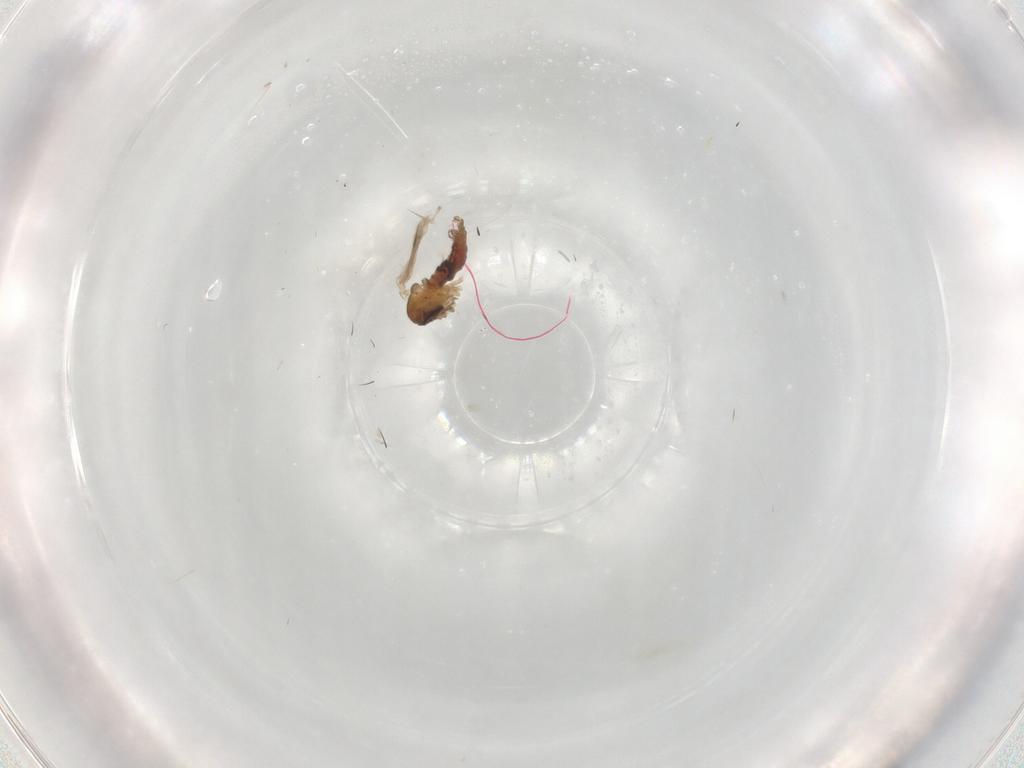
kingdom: Animalia
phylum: Arthropoda
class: Insecta
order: Diptera
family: Psychodidae
